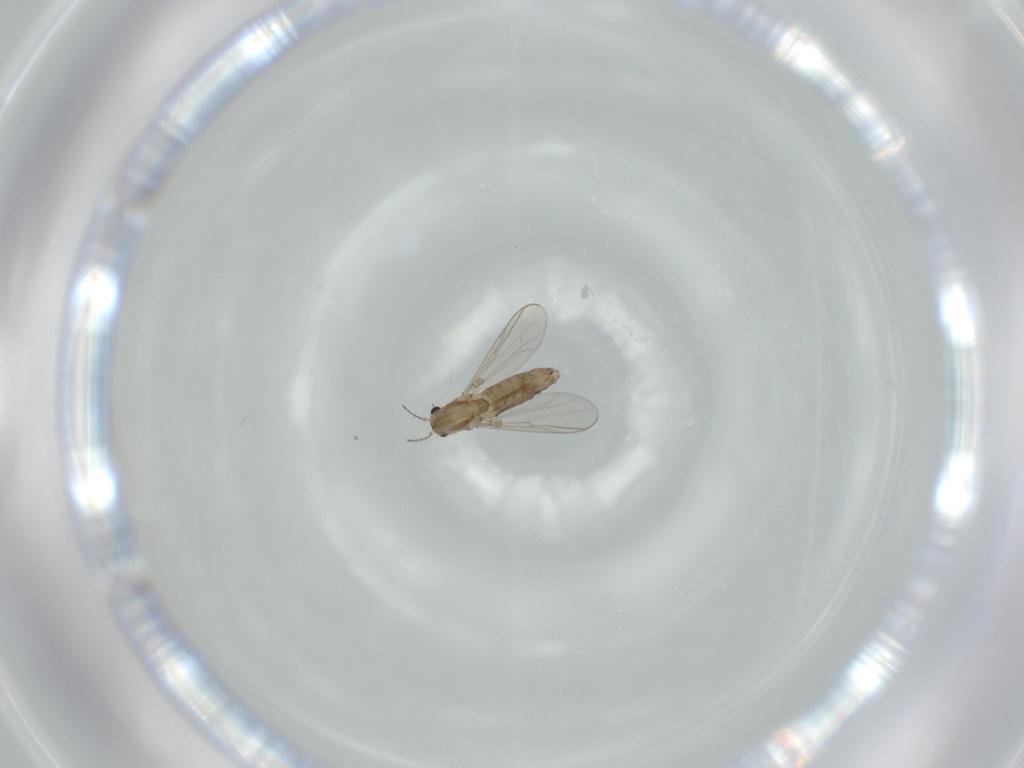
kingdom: Animalia
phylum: Arthropoda
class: Insecta
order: Diptera
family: Chironomidae
